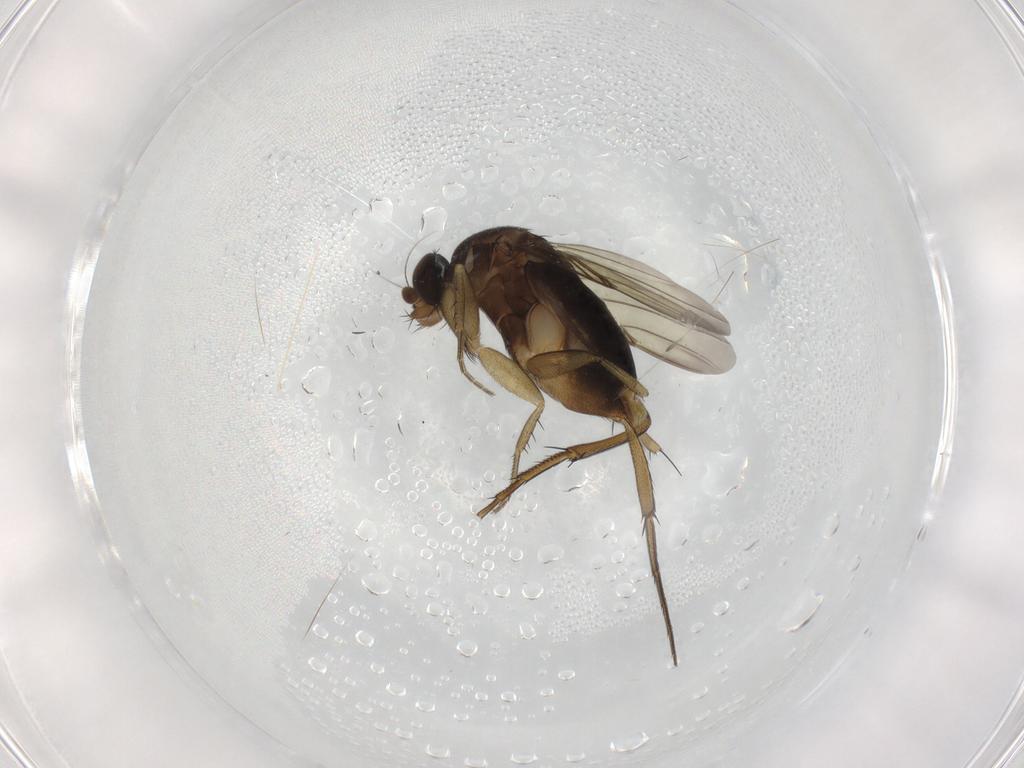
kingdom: Animalia
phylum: Arthropoda
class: Insecta
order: Diptera
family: Phoridae
